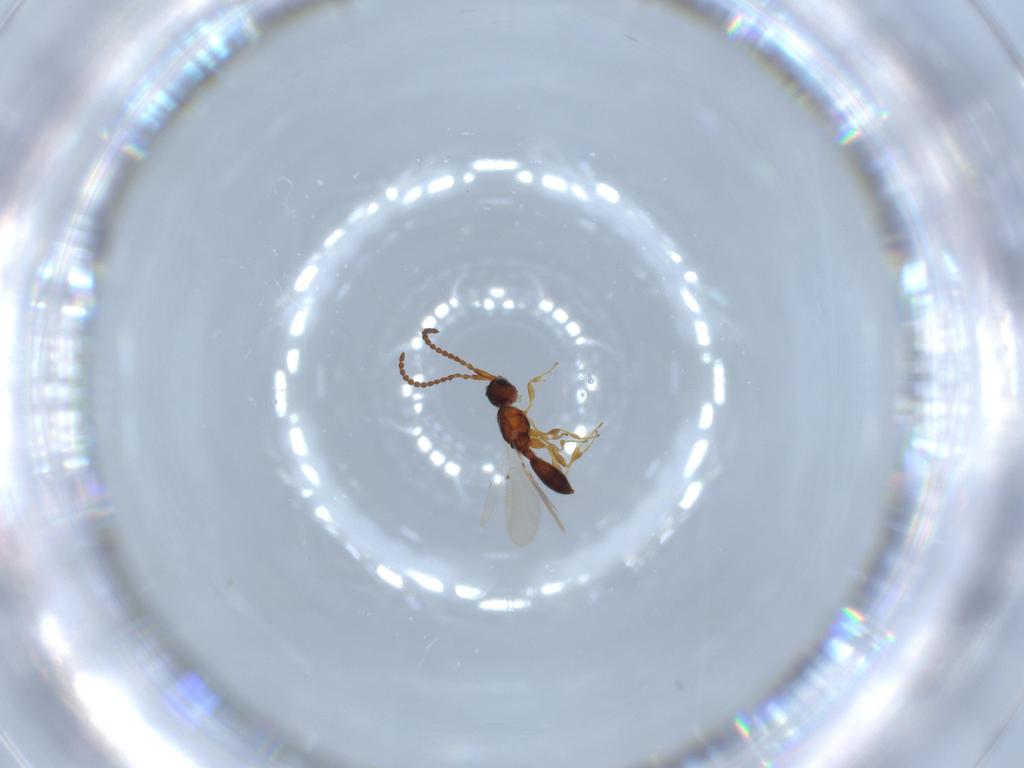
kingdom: Animalia
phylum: Arthropoda
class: Insecta
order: Hymenoptera
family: Diapriidae
